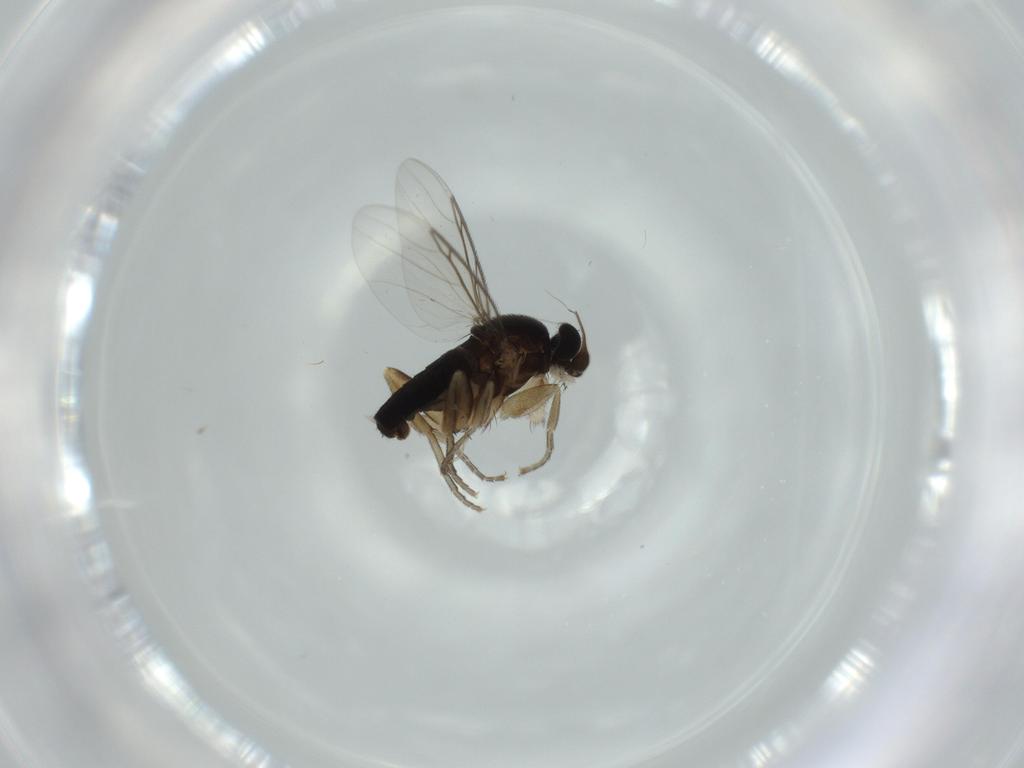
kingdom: Animalia
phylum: Arthropoda
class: Insecta
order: Diptera
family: Phoridae
